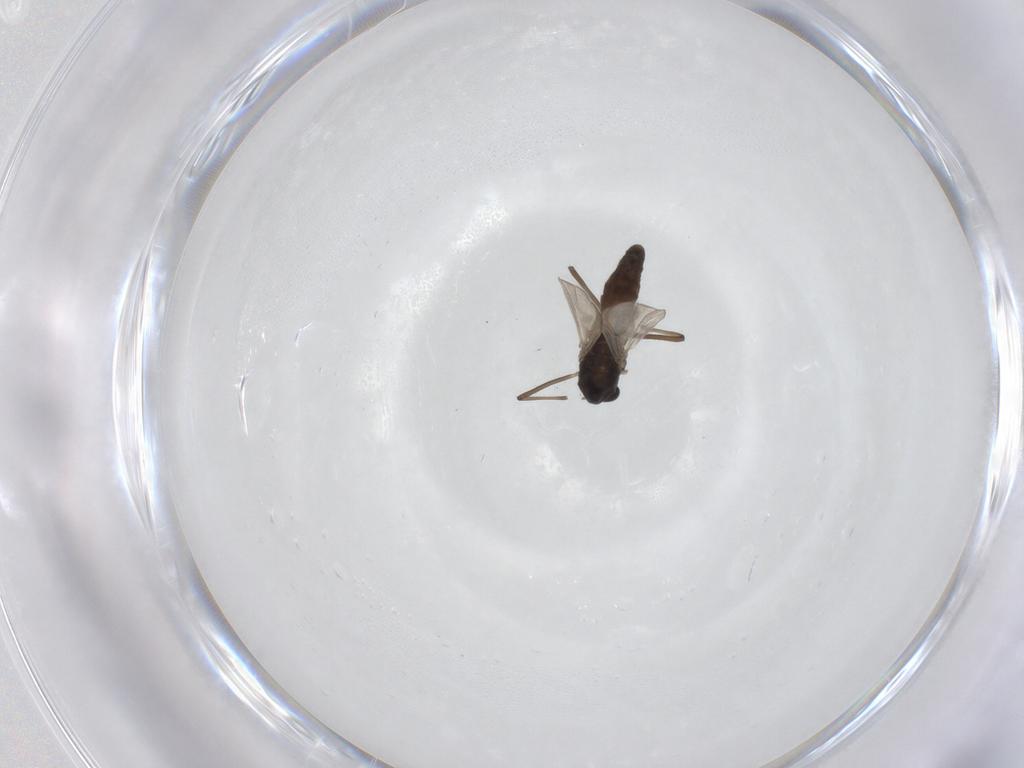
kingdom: Animalia
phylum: Arthropoda
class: Insecta
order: Diptera
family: Chironomidae
